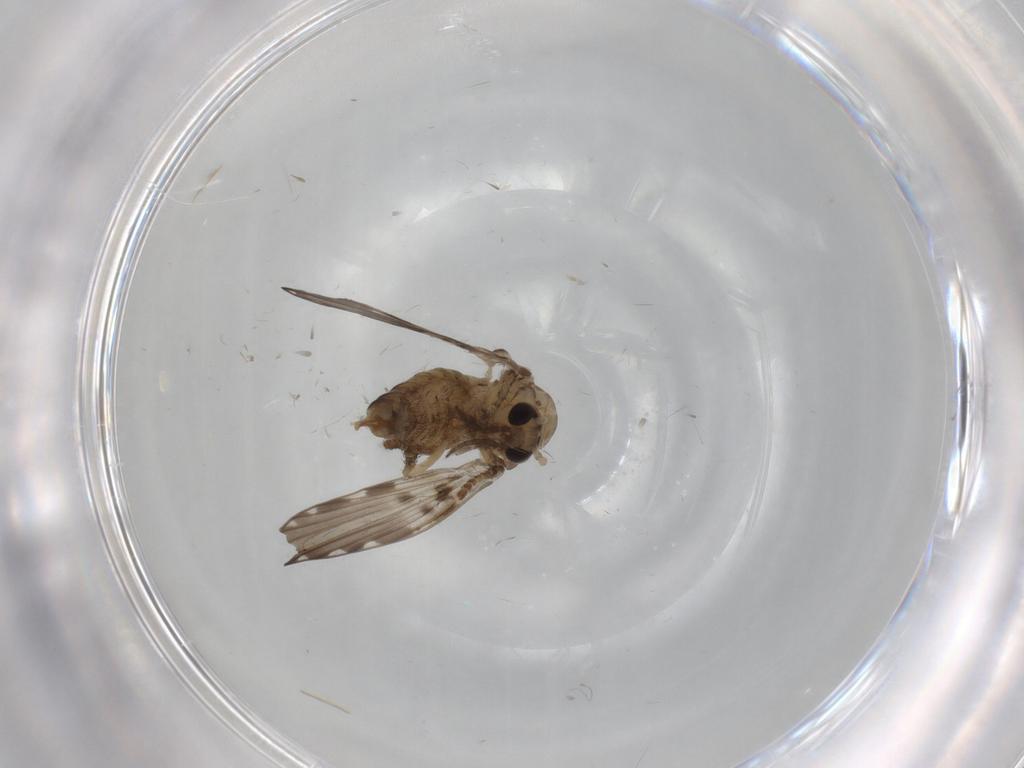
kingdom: Animalia
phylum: Arthropoda
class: Insecta
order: Diptera
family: Psychodidae
